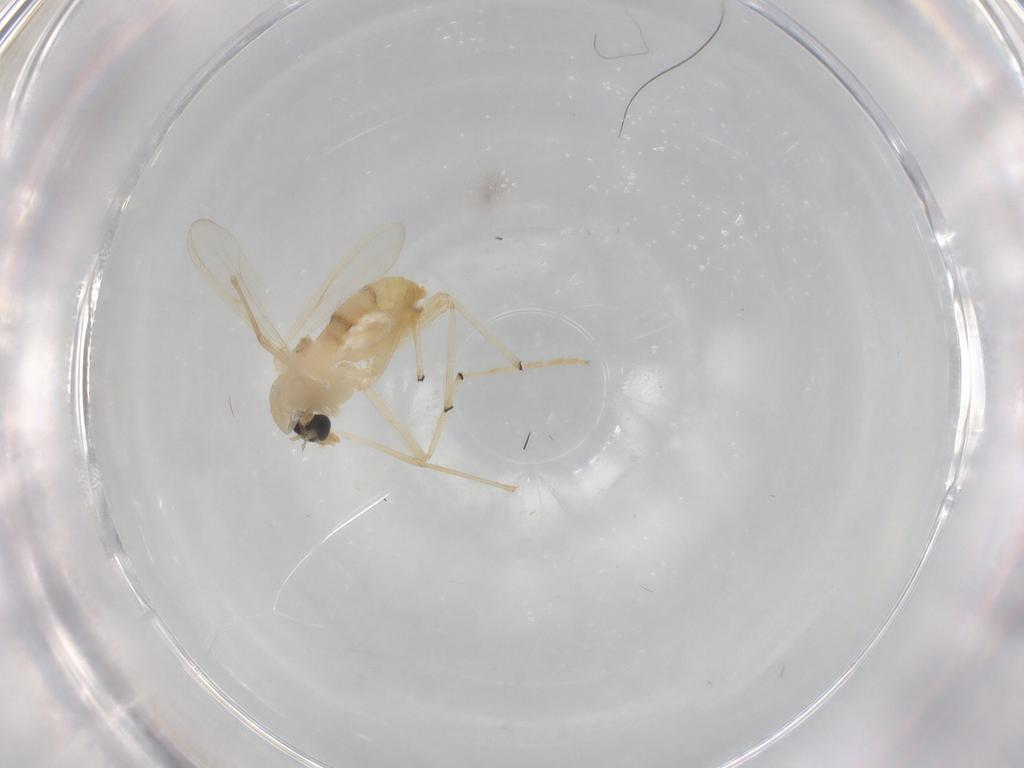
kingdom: Animalia
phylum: Arthropoda
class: Insecta
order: Diptera
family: Chironomidae
